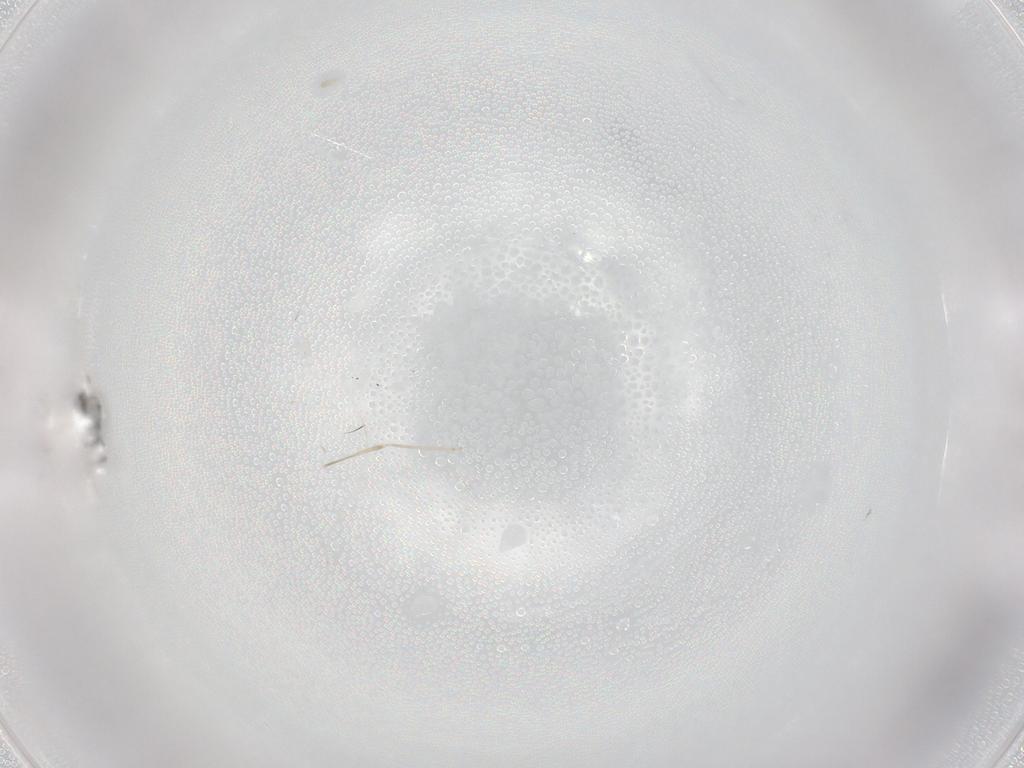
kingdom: Animalia
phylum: Arthropoda
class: Insecta
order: Diptera
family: Sciaridae
